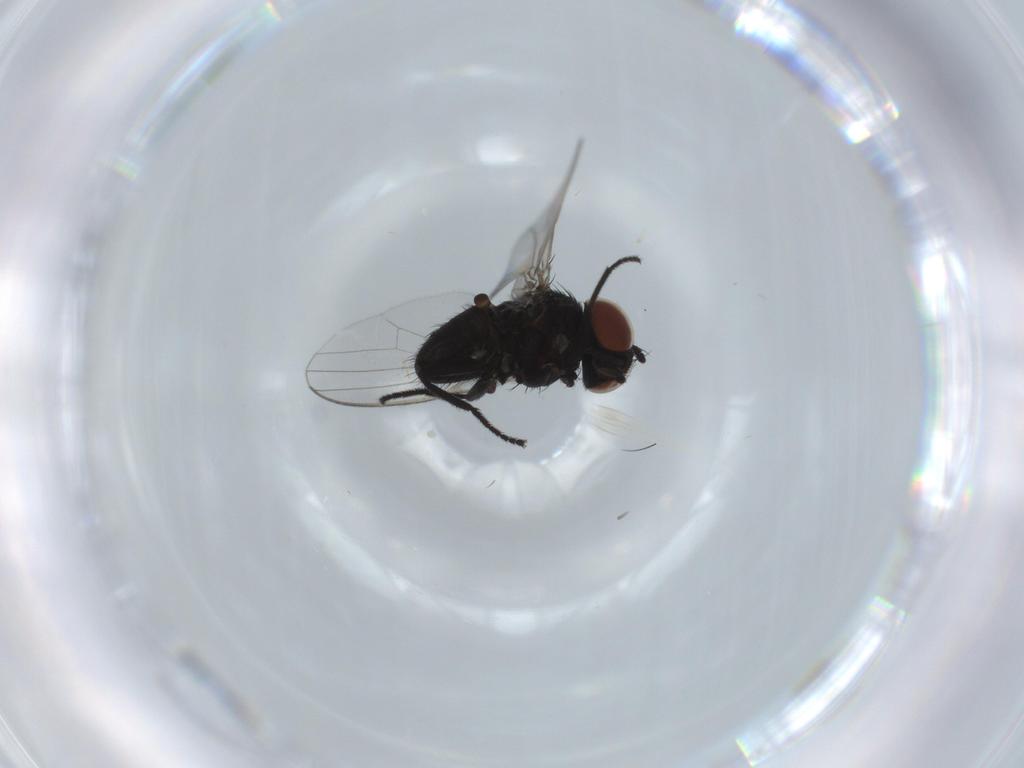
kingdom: Animalia
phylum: Arthropoda
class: Insecta
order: Diptera
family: Milichiidae
